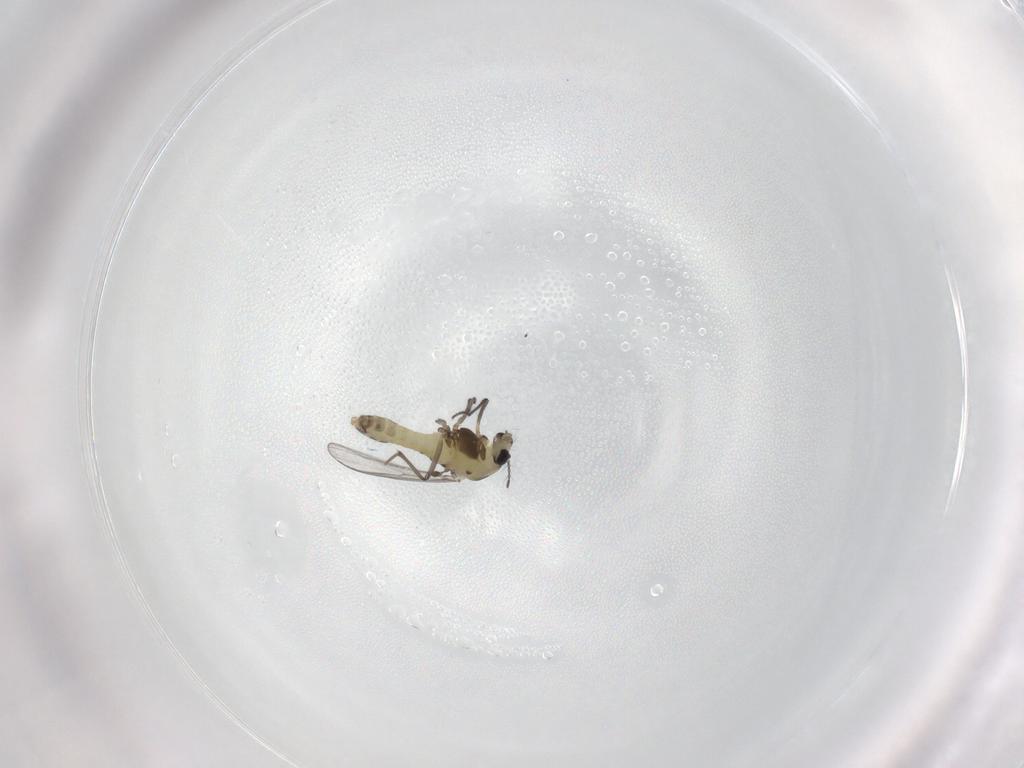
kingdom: Animalia
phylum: Arthropoda
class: Insecta
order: Diptera
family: Chironomidae
